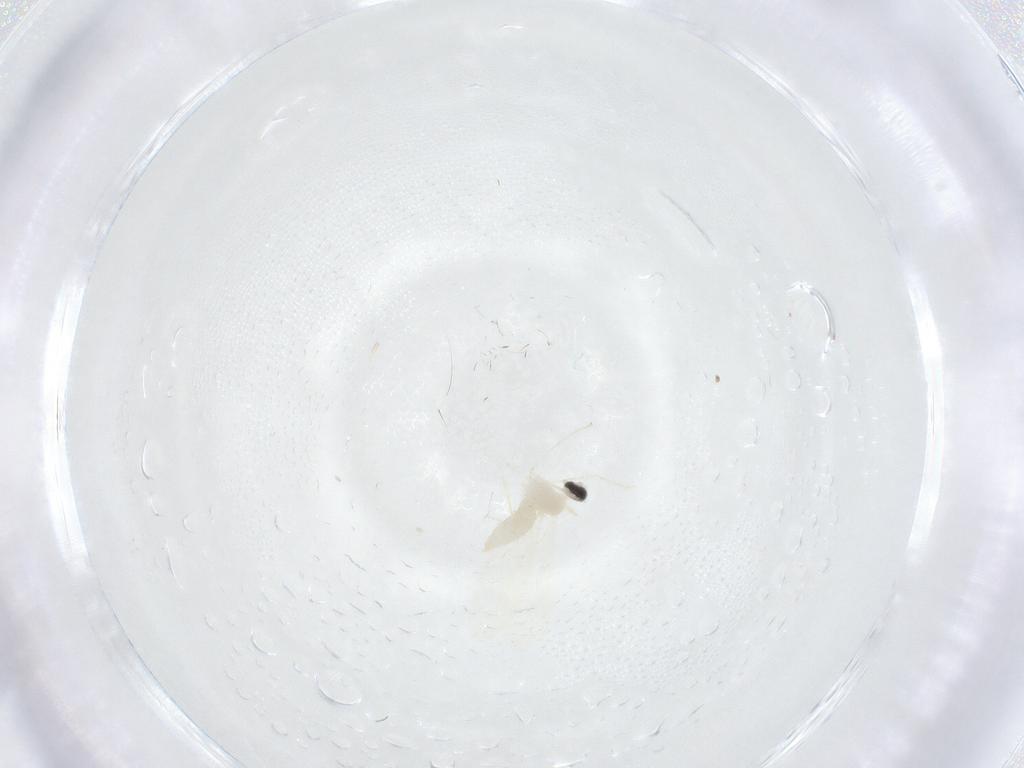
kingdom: Animalia
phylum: Arthropoda
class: Insecta
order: Diptera
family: Cecidomyiidae
